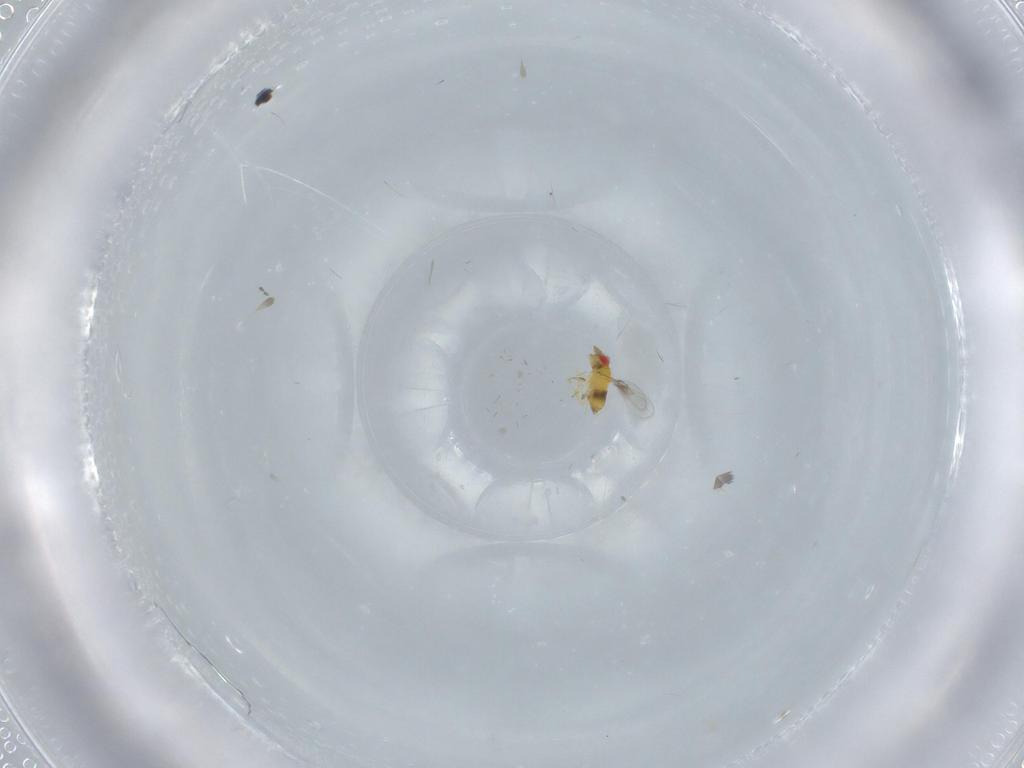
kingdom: Animalia
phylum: Arthropoda
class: Insecta
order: Hymenoptera
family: Trichogrammatidae
